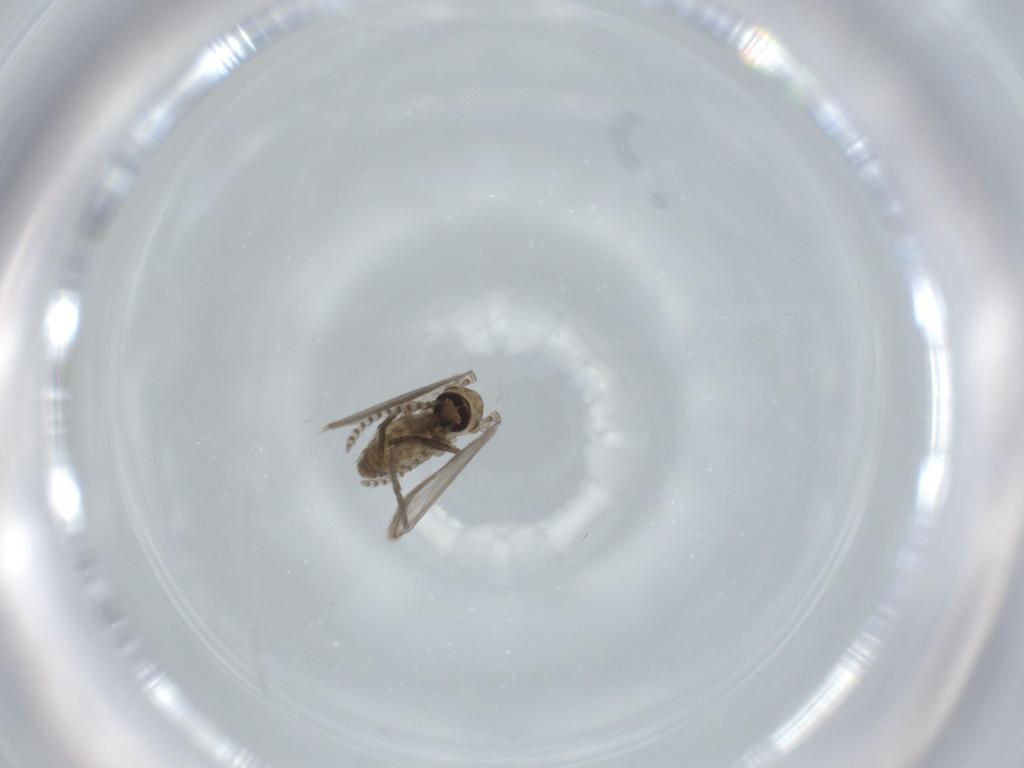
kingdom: Animalia
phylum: Arthropoda
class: Insecta
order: Diptera
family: Psychodidae
